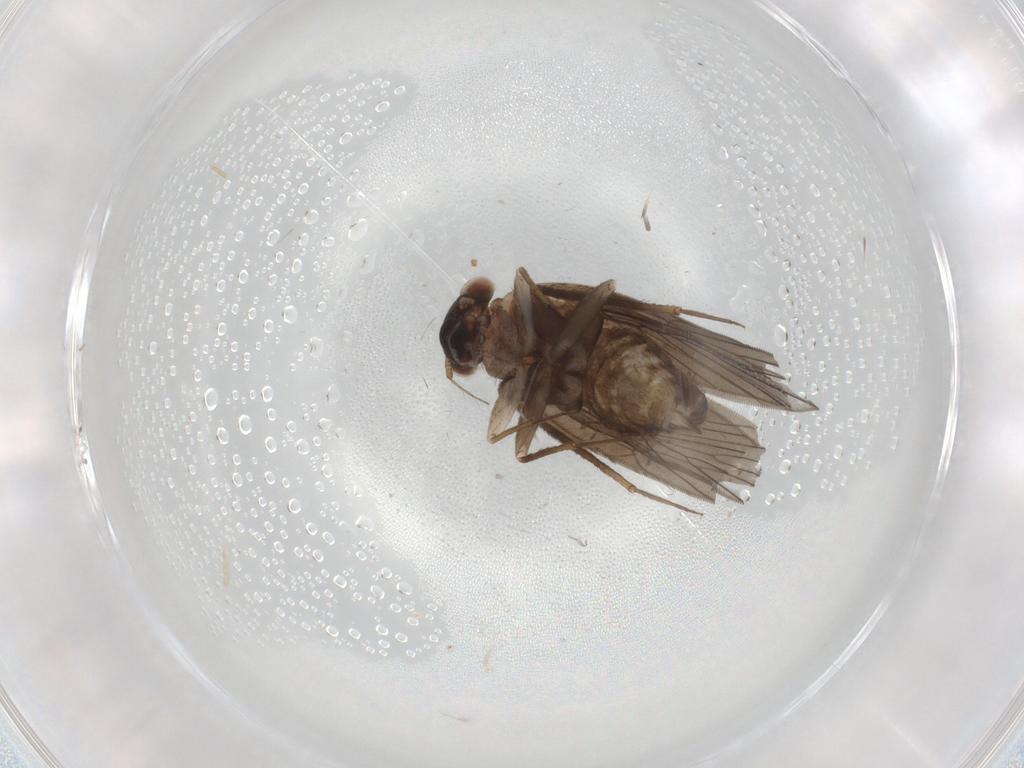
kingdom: Animalia
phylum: Arthropoda
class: Insecta
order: Psocodea
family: Lepidopsocidae
